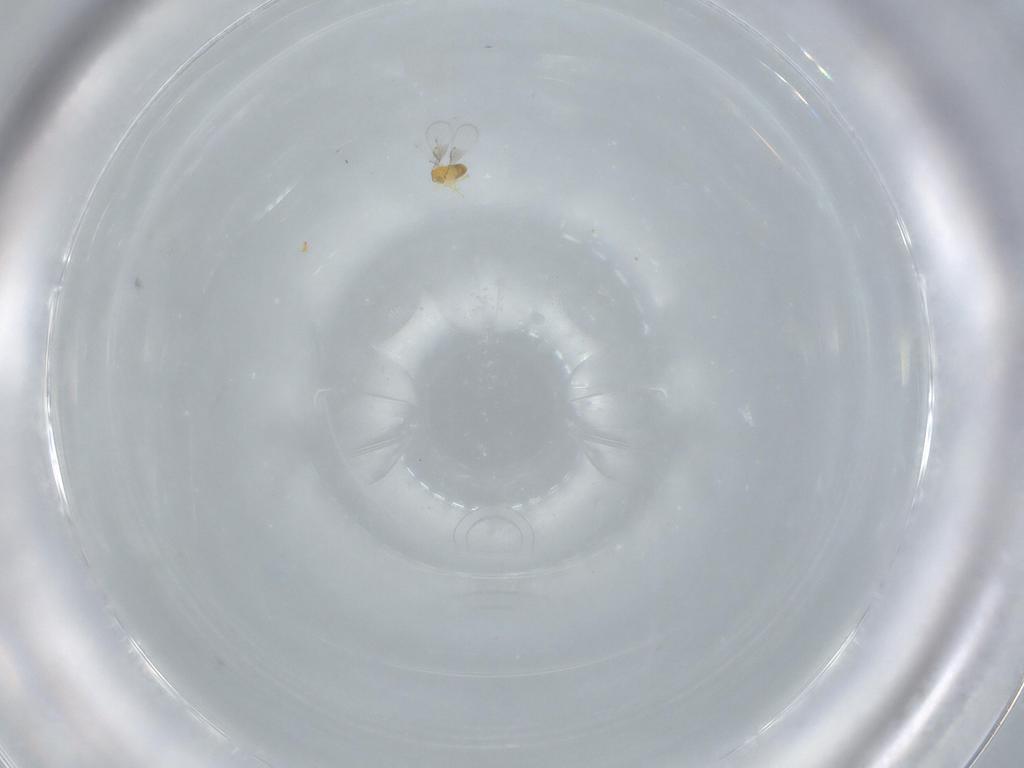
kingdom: Animalia
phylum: Arthropoda
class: Insecta
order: Hymenoptera
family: Trichogrammatidae
